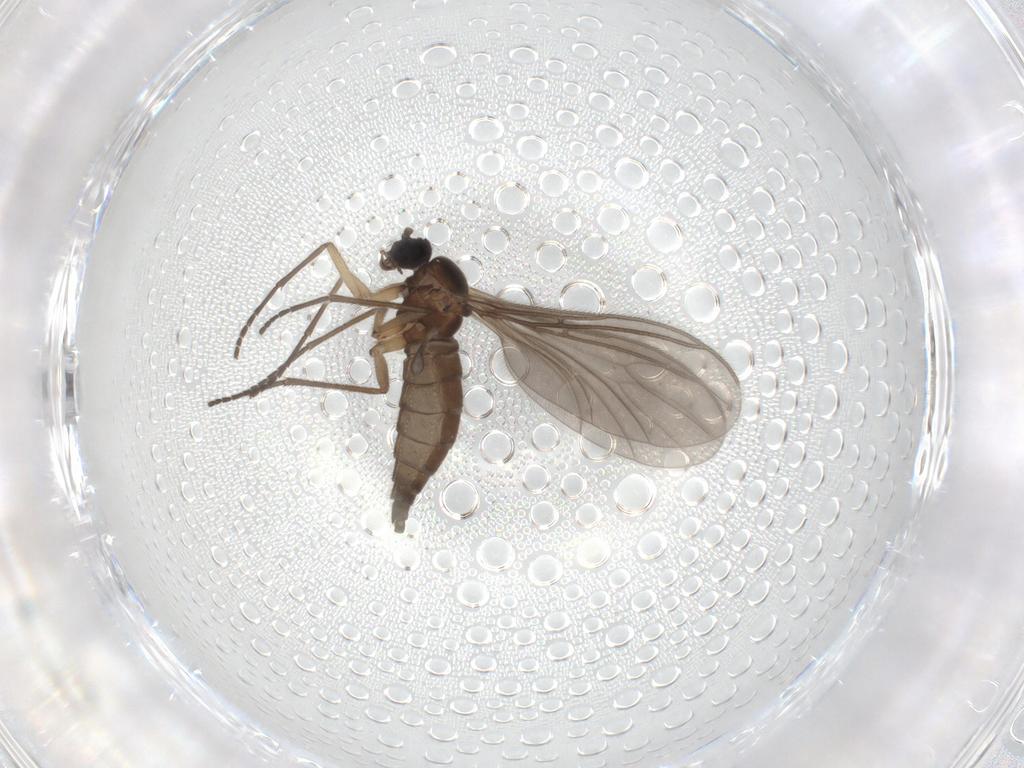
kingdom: Animalia
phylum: Arthropoda
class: Insecta
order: Diptera
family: Sciaridae
